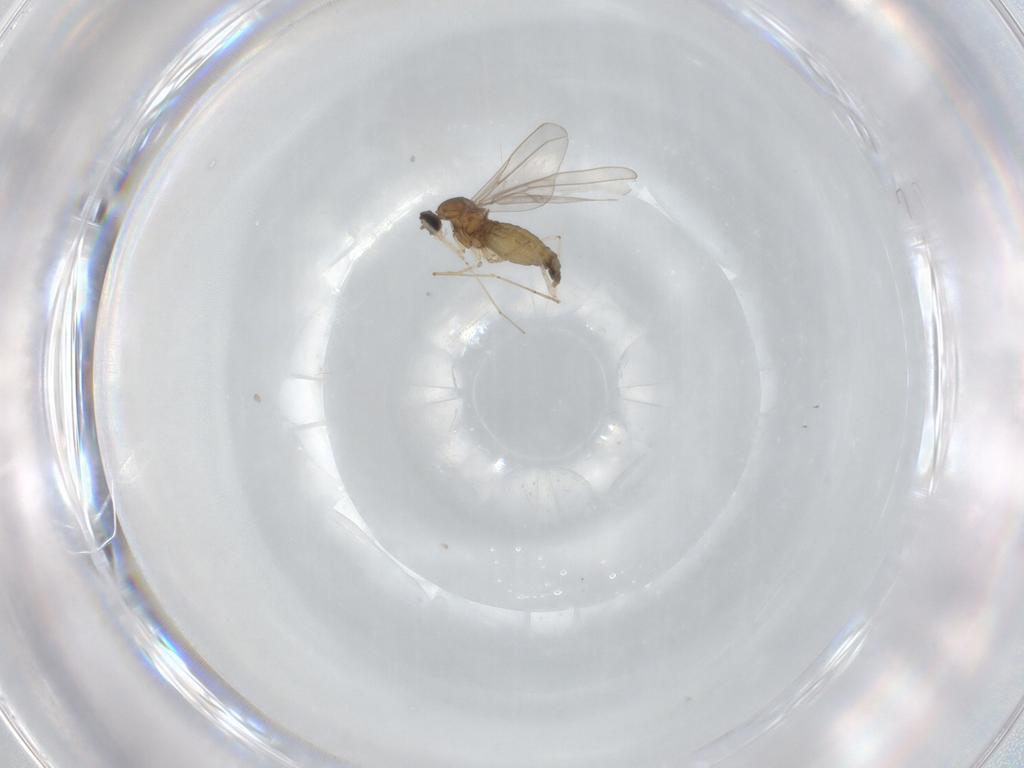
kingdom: Animalia
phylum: Arthropoda
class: Insecta
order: Diptera
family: Cecidomyiidae
